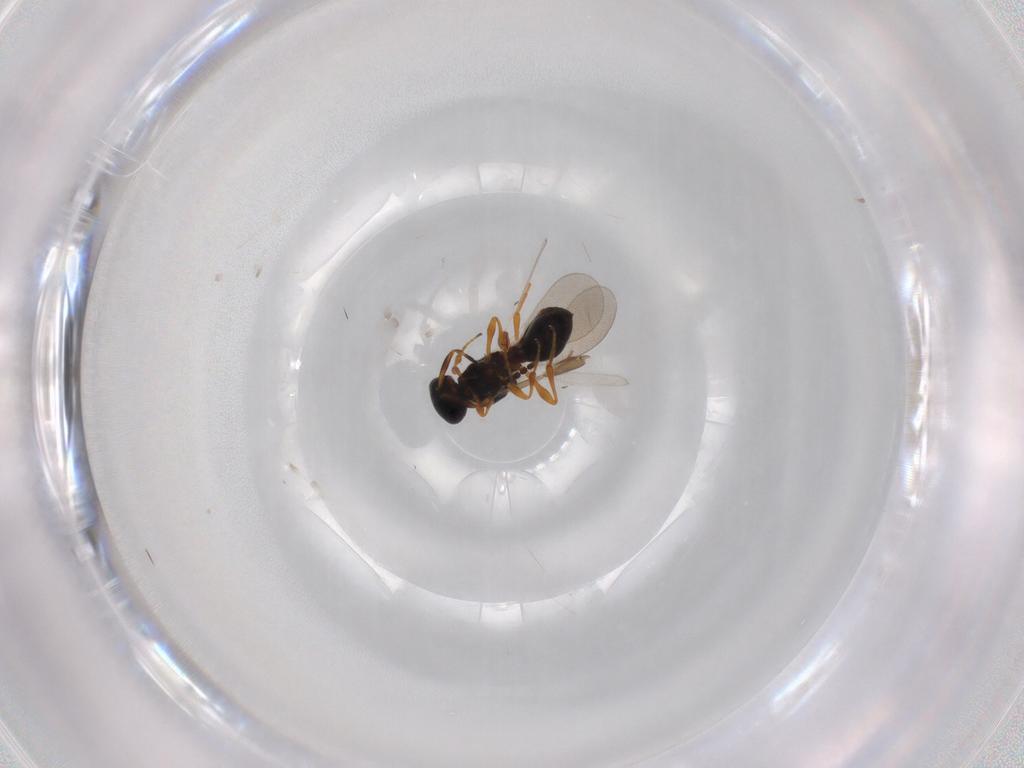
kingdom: Animalia
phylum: Arthropoda
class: Insecta
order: Hymenoptera
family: Platygastridae
